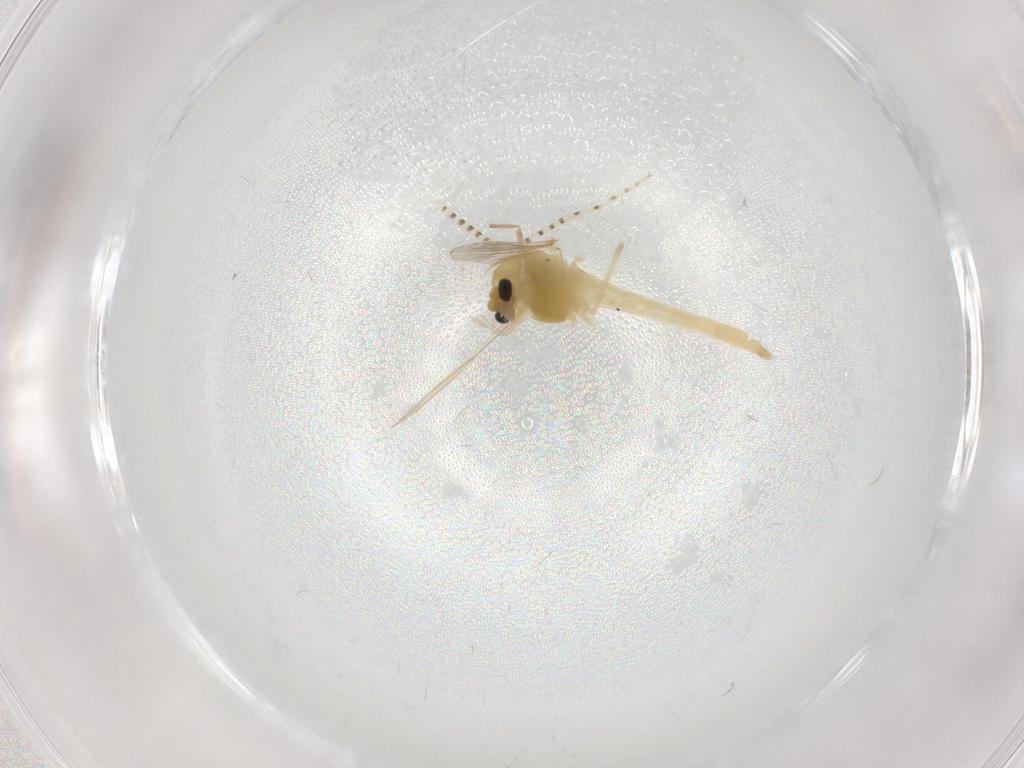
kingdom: Animalia
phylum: Arthropoda
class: Insecta
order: Diptera
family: Chironomidae
